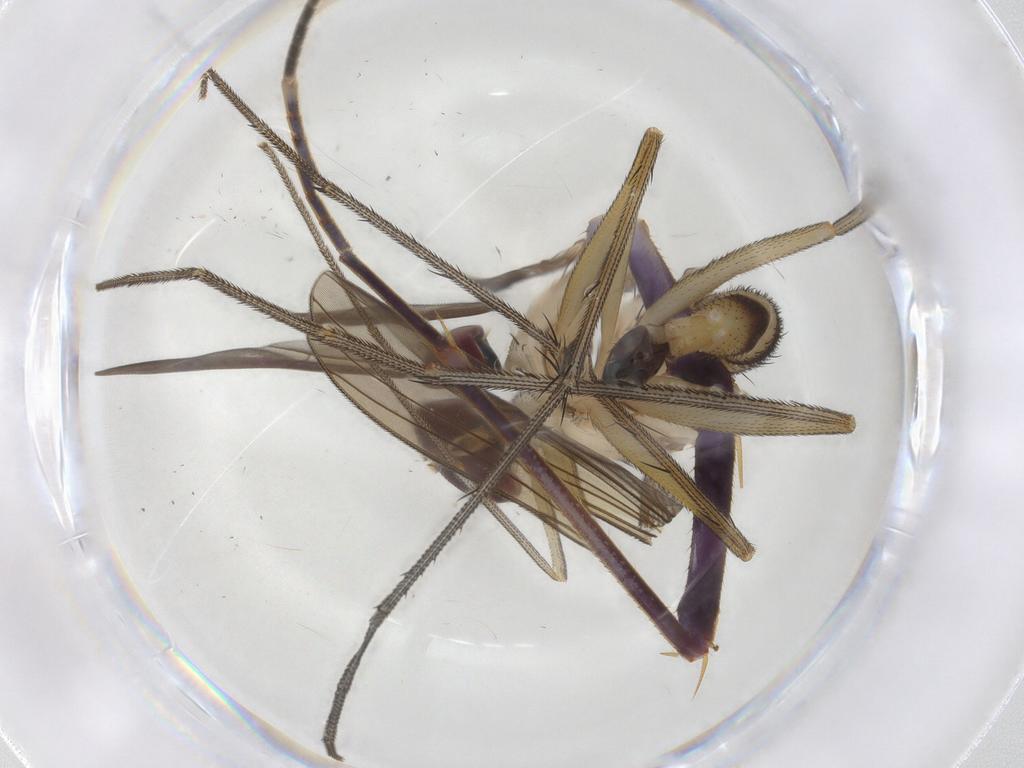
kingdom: Animalia
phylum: Arthropoda
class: Insecta
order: Diptera
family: Dolichopodidae
